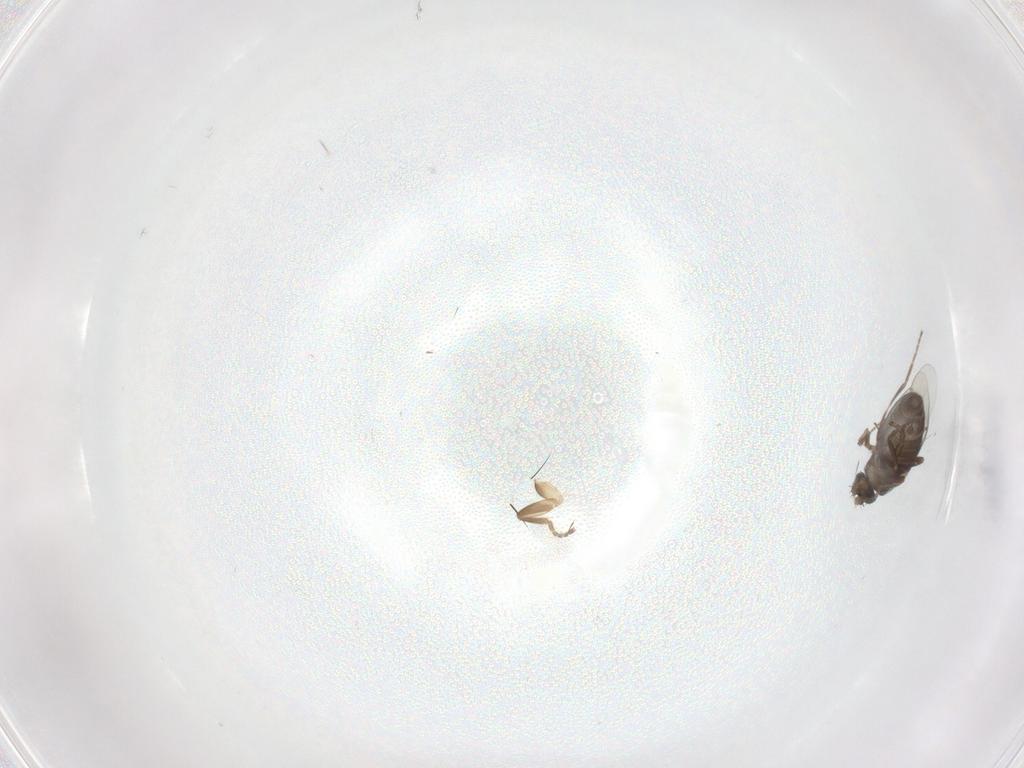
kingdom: Animalia
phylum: Arthropoda
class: Insecta
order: Diptera
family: Phoridae
